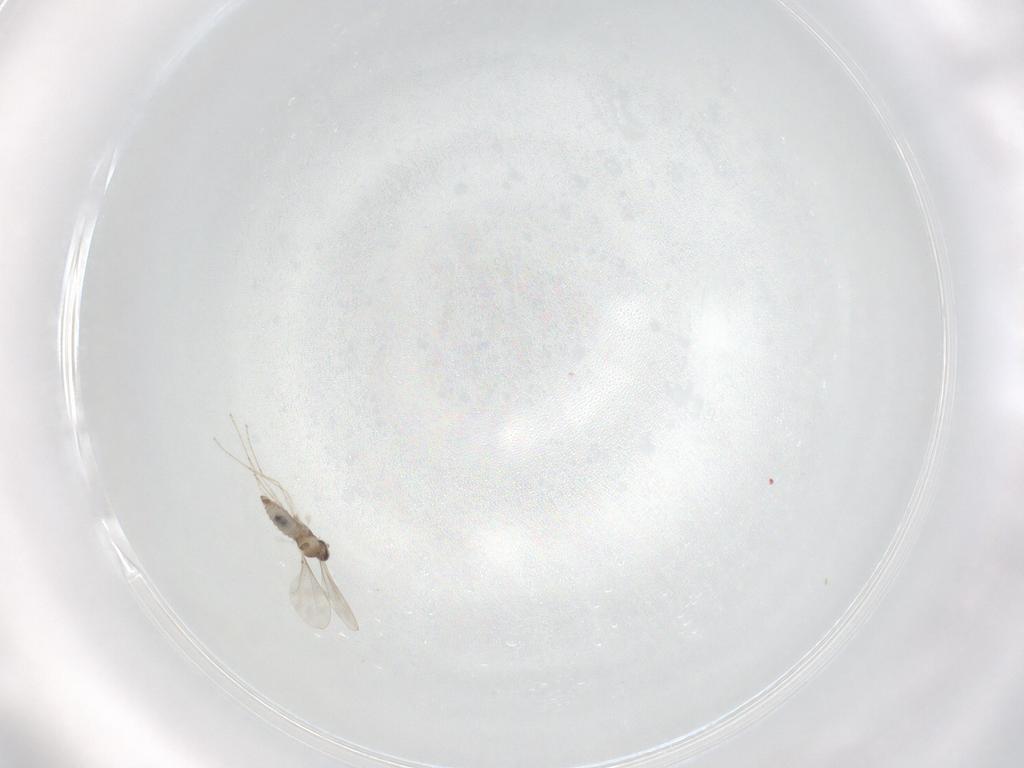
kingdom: Animalia
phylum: Arthropoda
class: Insecta
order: Diptera
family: Cecidomyiidae
